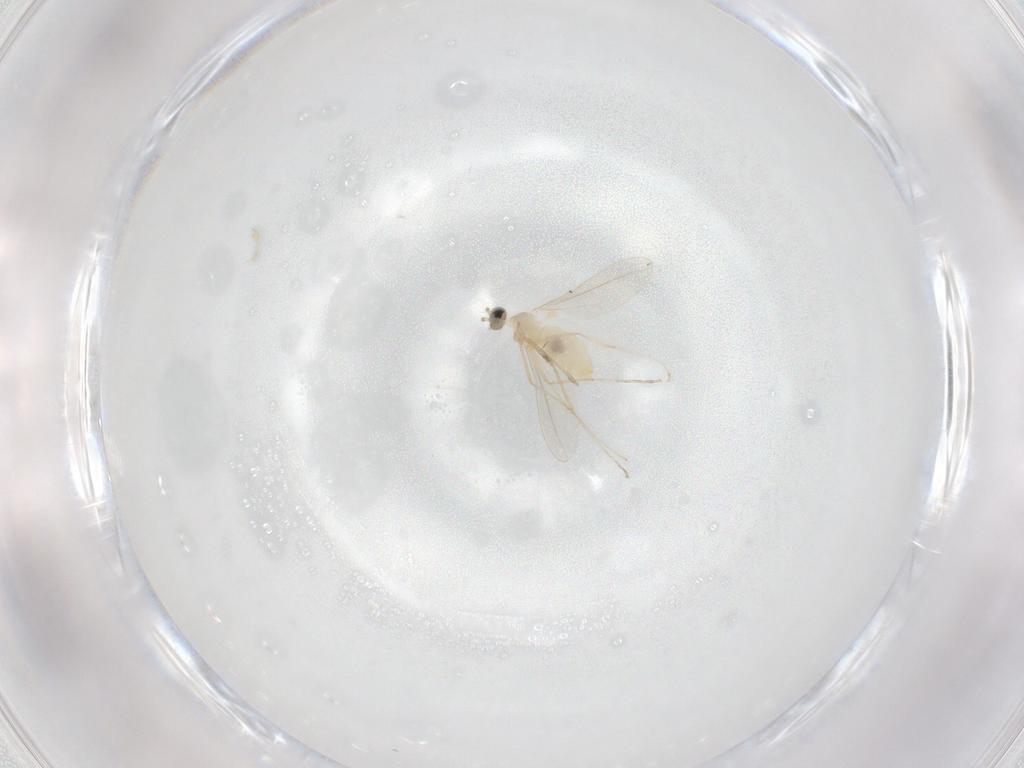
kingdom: Animalia
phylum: Arthropoda
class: Insecta
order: Diptera
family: Cecidomyiidae
